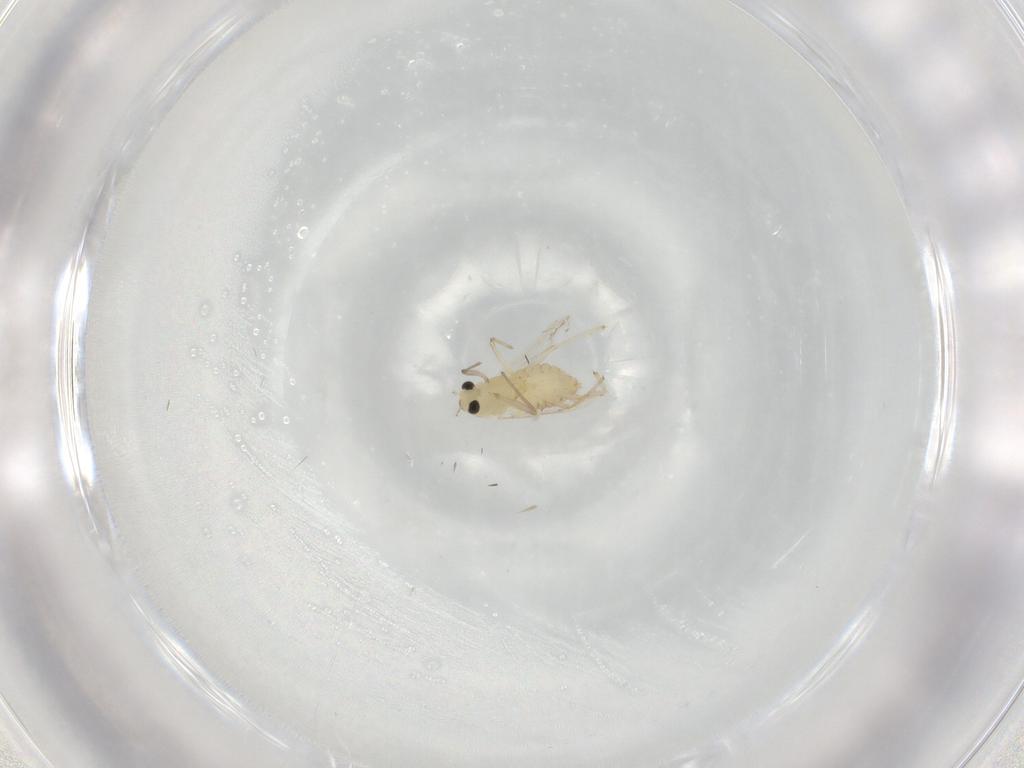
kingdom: Animalia
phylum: Arthropoda
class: Insecta
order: Diptera
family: Chironomidae
